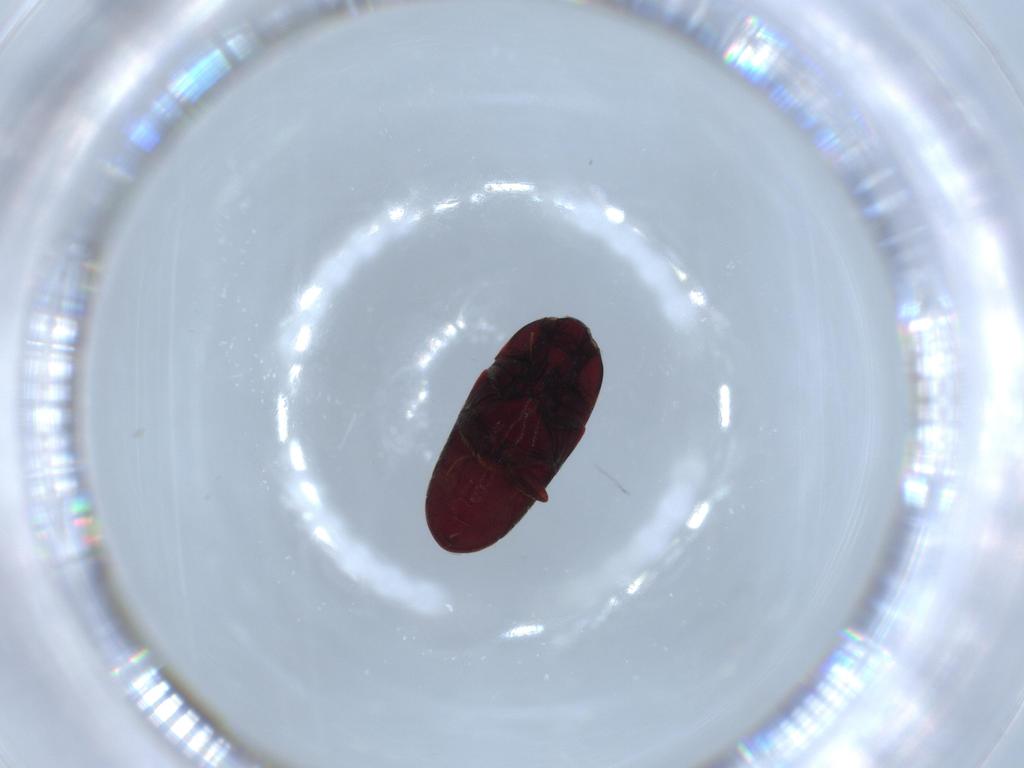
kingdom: Animalia
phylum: Arthropoda
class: Insecta
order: Coleoptera
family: Throscidae
